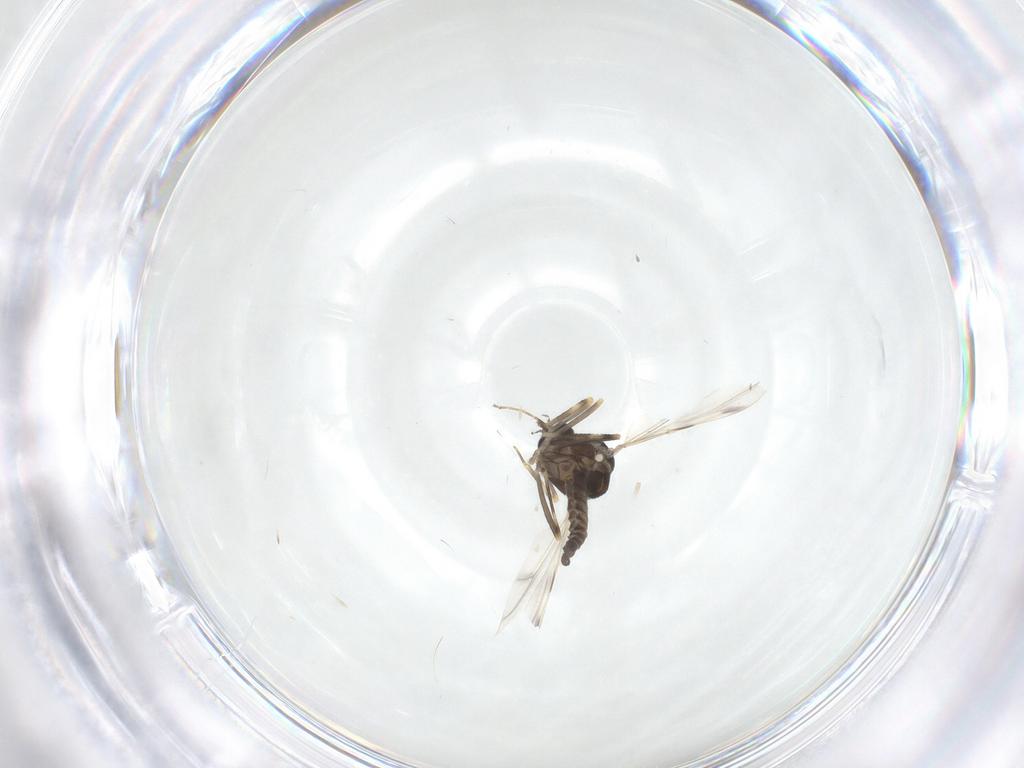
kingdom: Animalia
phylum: Arthropoda
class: Insecta
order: Diptera
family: Ceratopogonidae
